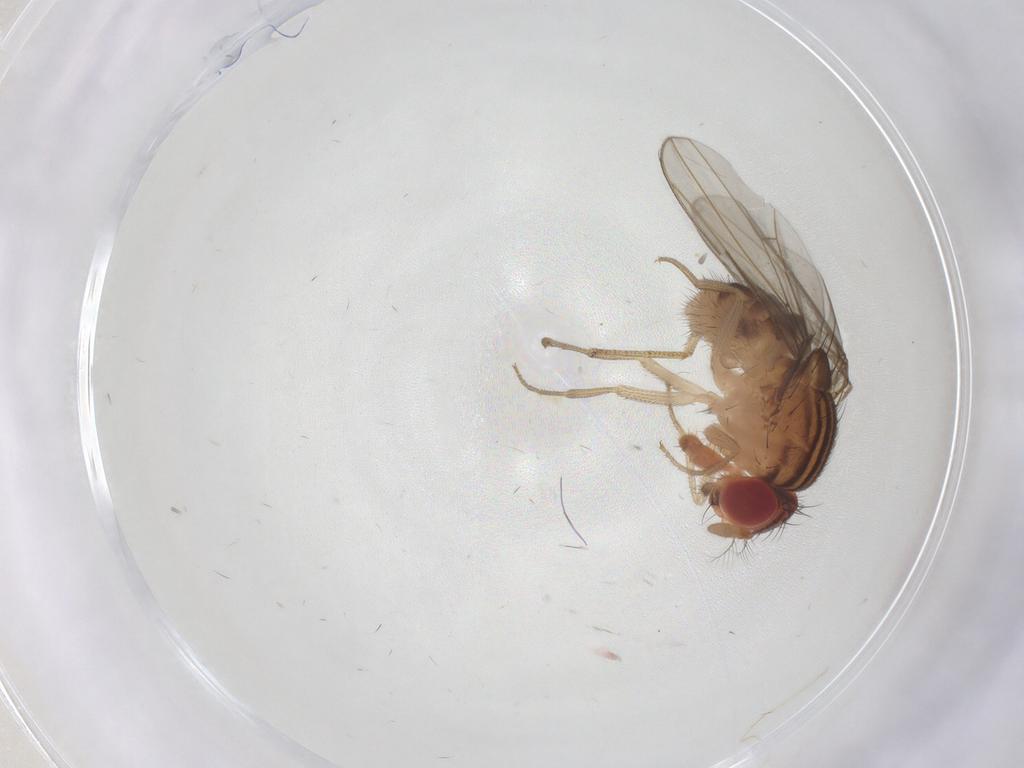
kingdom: Animalia
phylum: Arthropoda
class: Insecta
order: Diptera
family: Drosophilidae
